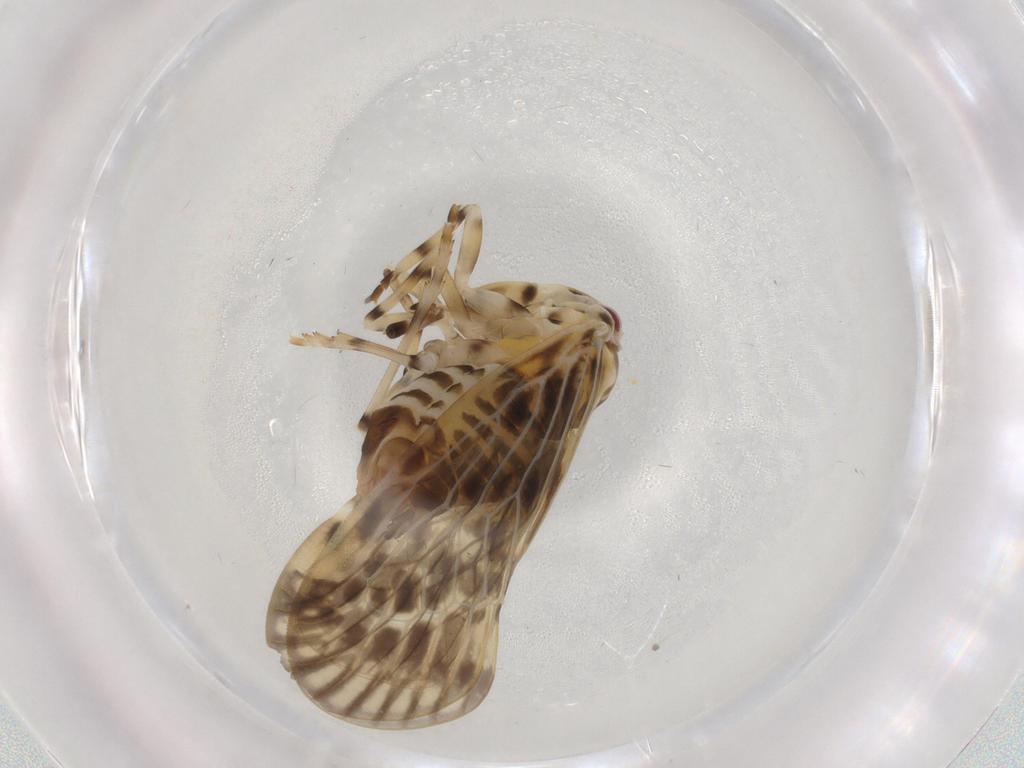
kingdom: Animalia
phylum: Arthropoda
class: Insecta
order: Hemiptera
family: Derbidae
